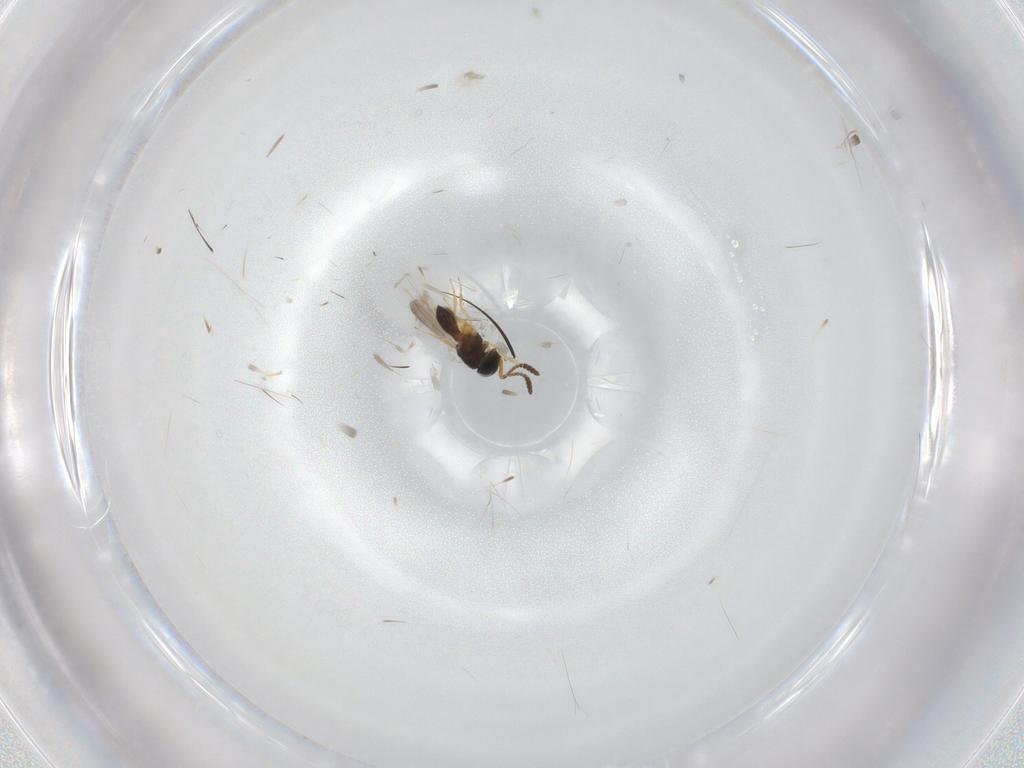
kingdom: Animalia
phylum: Arthropoda
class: Insecta
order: Hymenoptera
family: Scelionidae
